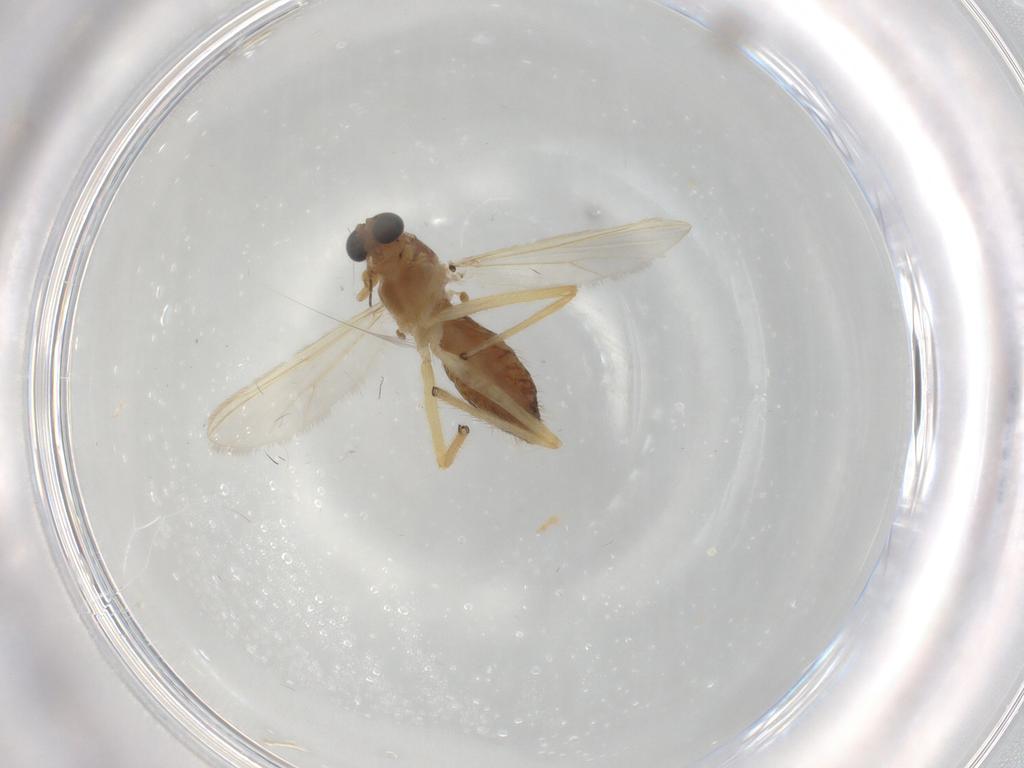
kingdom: Animalia
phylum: Arthropoda
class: Insecta
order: Diptera
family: Chironomidae
